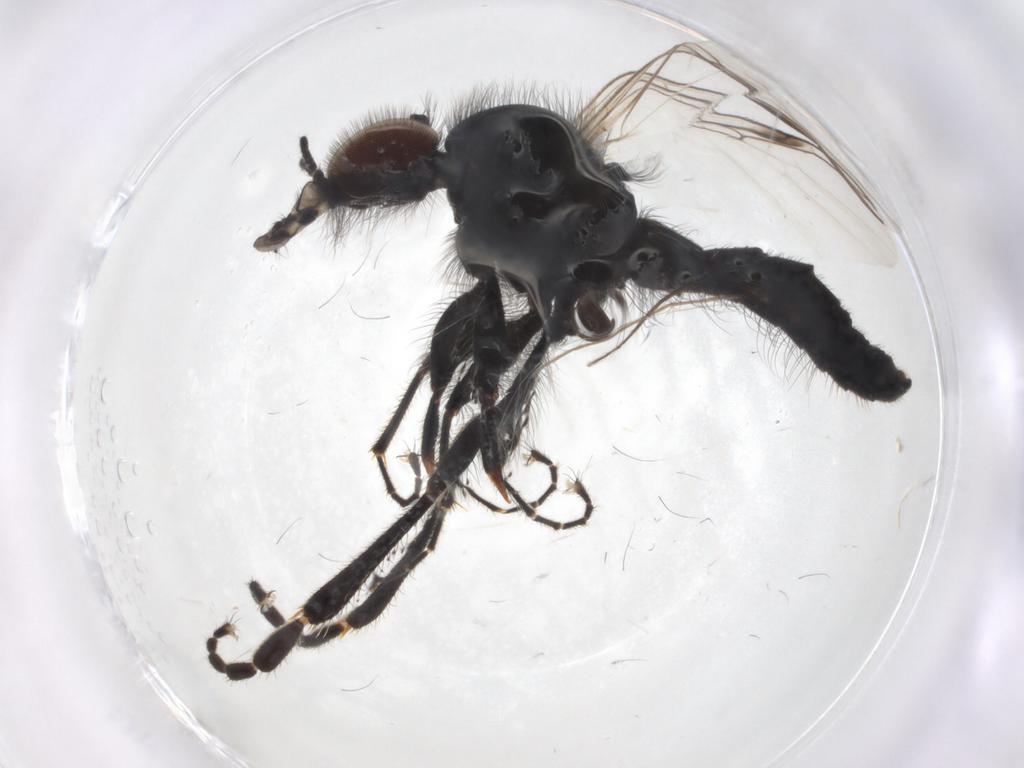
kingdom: Animalia
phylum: Arthropoda
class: Insecta
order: Diptera
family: Bibionidae
